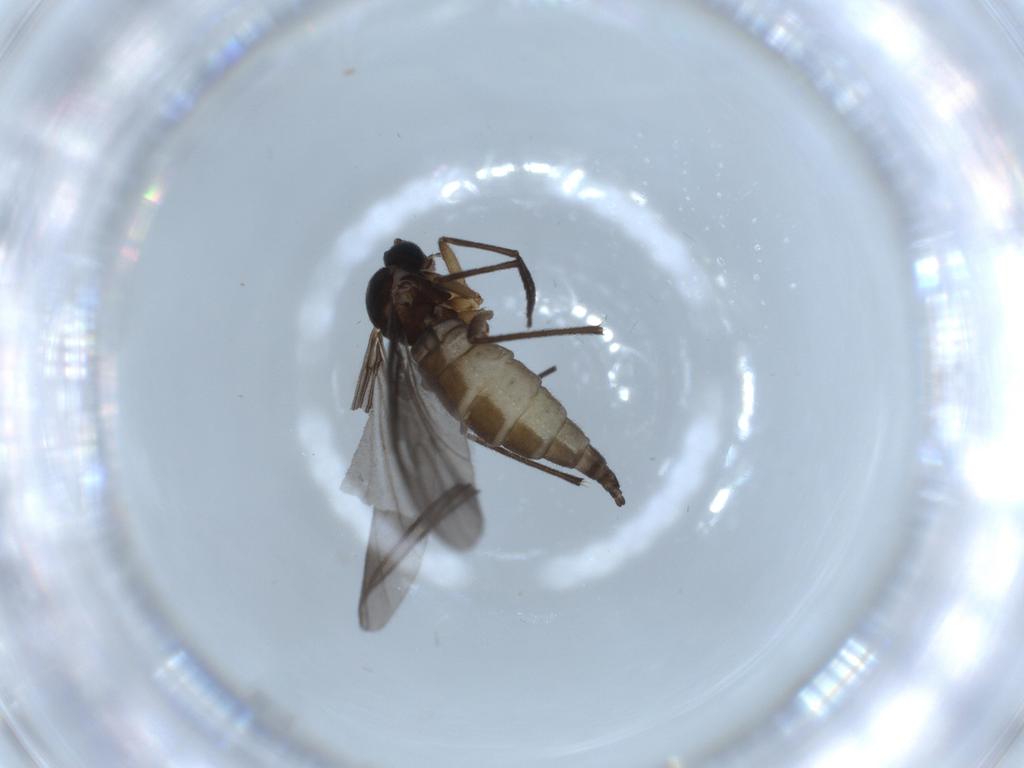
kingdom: Animalia
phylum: Arthropoda
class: Insecta
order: Diptera
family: Sciaridae
